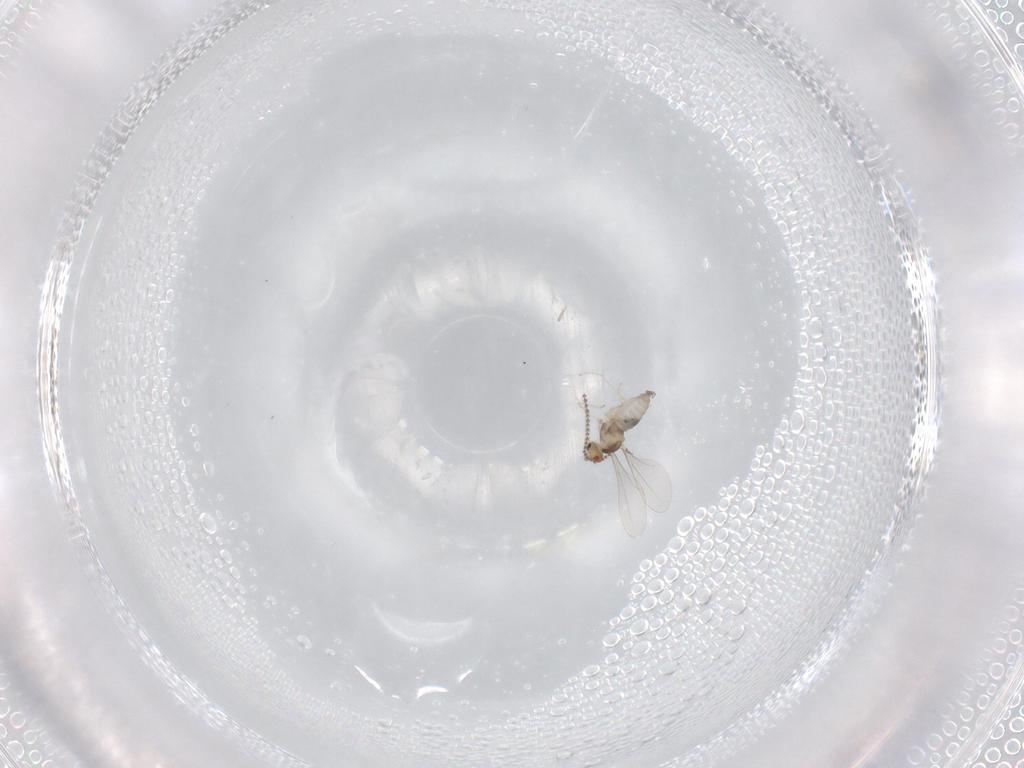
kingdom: Animalia
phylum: Arthropoda
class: Insecta
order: Diptera
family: Cecidomyiidae
